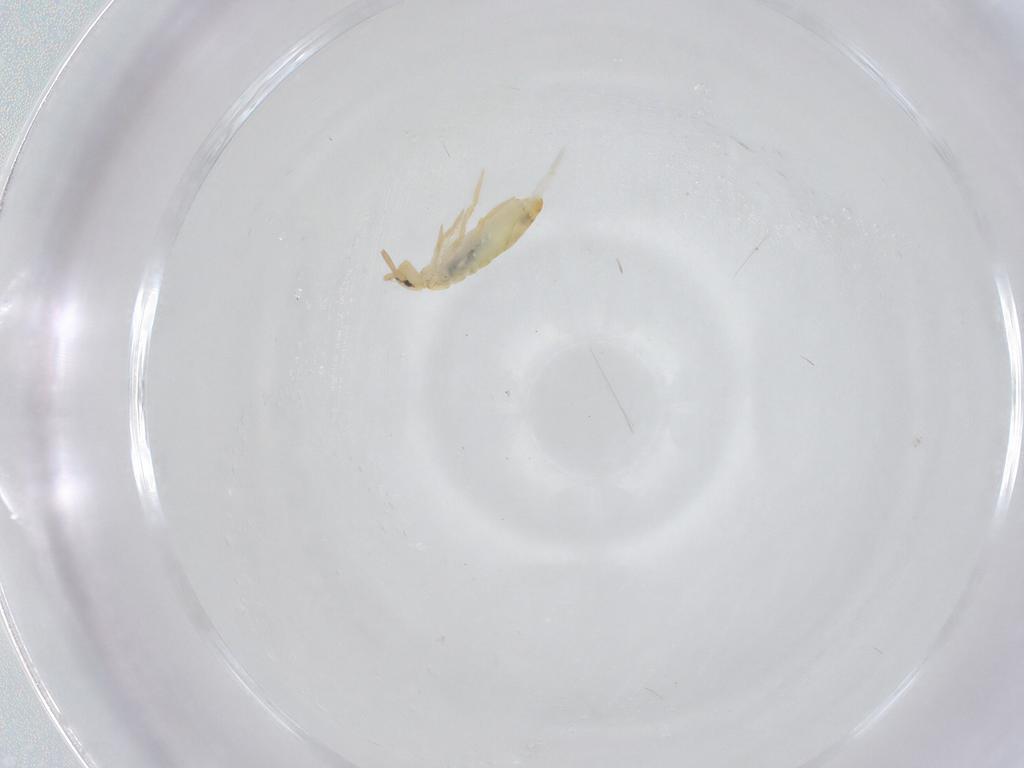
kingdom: Animalia
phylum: Arthropoda
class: Collembola
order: Entomobryomorpha
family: Entomobryidae
